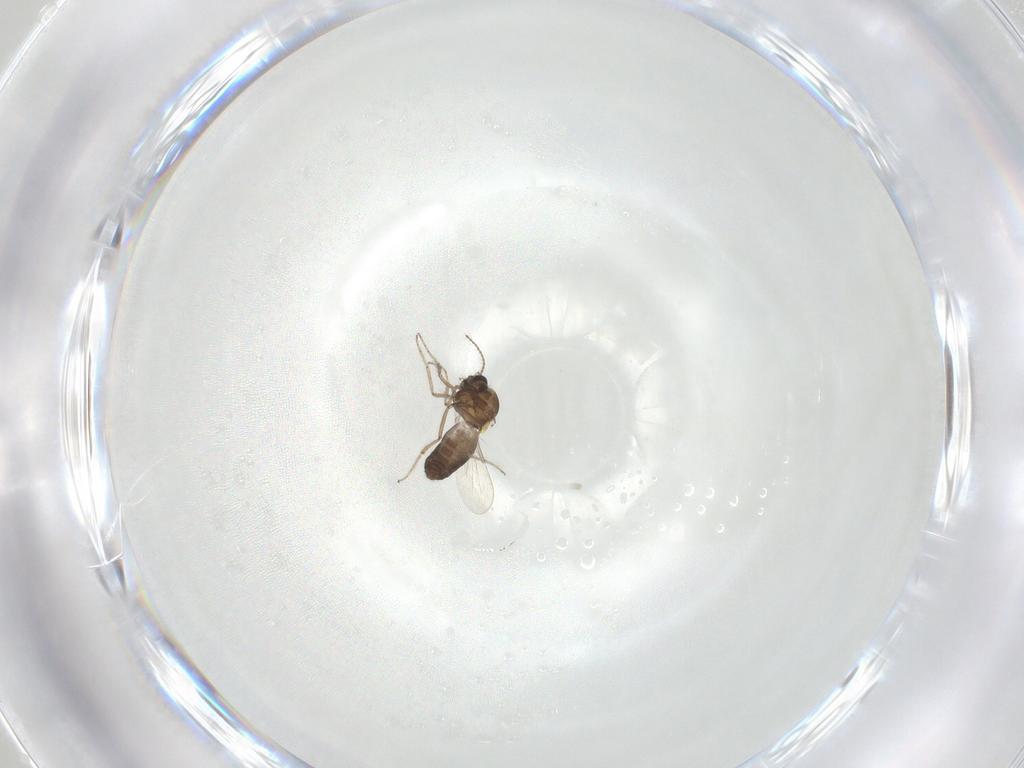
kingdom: Animalia
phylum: Arthropoda
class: Insecta
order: Diptera
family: Ceratopogonidae
